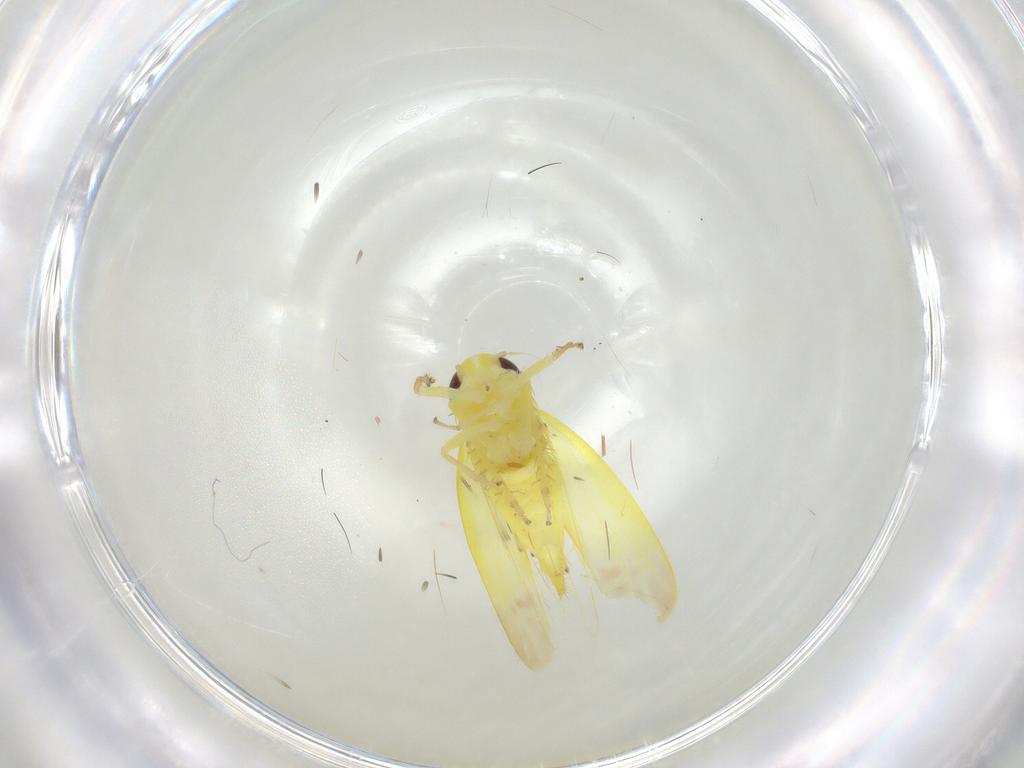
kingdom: Animalia
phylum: Arthropoda
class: Insecta
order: Hemiptera
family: Cicadellidae
